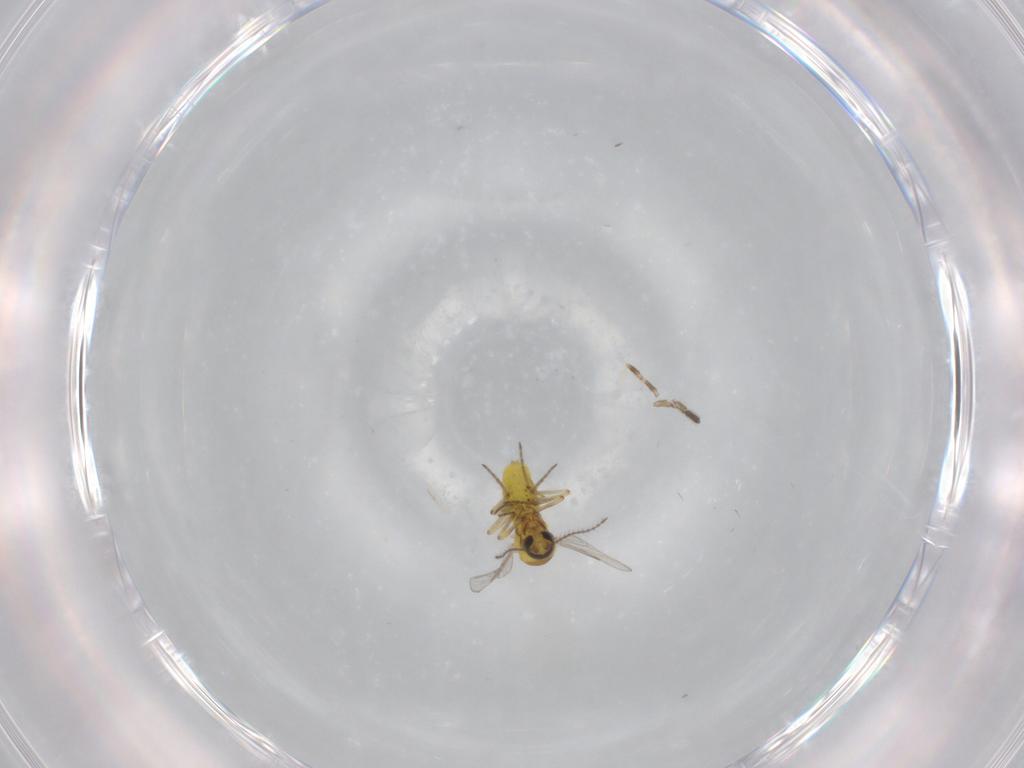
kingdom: Animalia
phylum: Arthropoda
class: Insecta
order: Diptera
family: Sciaridae
